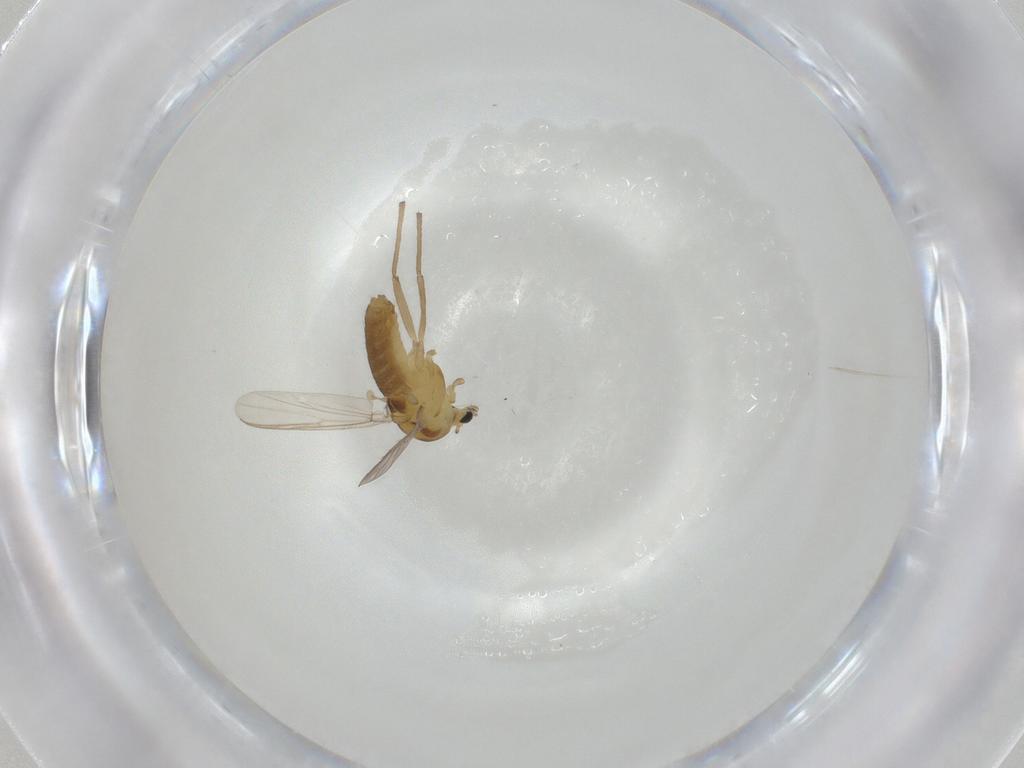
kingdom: Animalia
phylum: Arthropoda
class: Insecta
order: Diptera
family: Chironomidae
